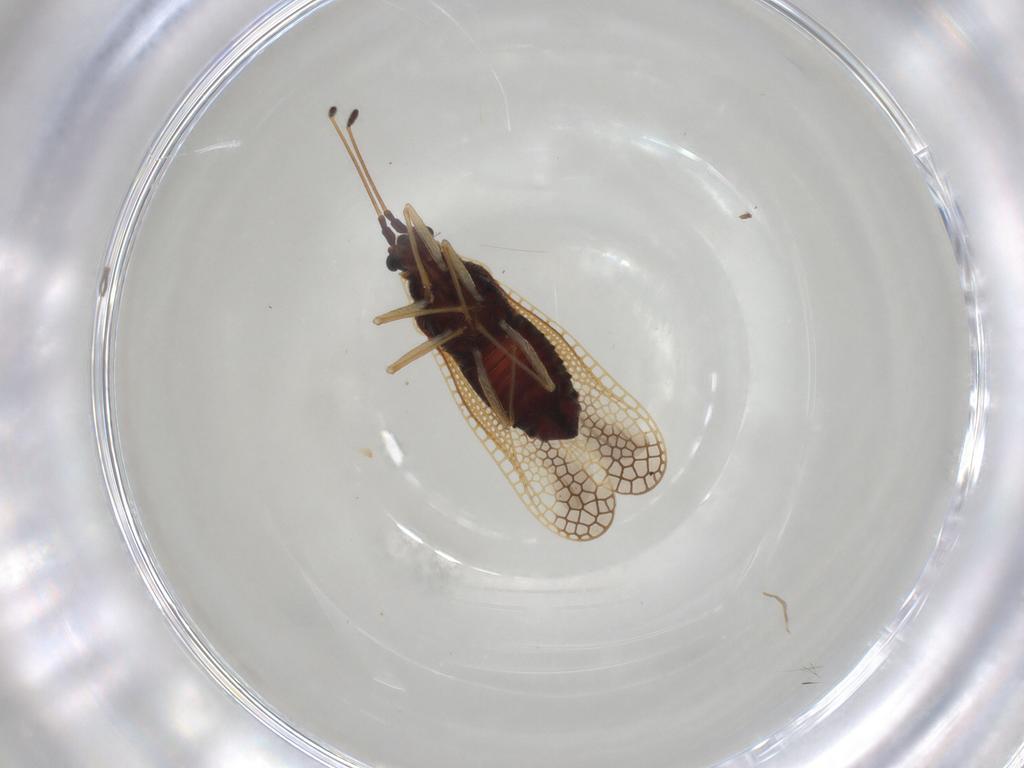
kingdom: Animalia
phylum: Arthropoda
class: Insecta
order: Hemiptera
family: Tingidae
